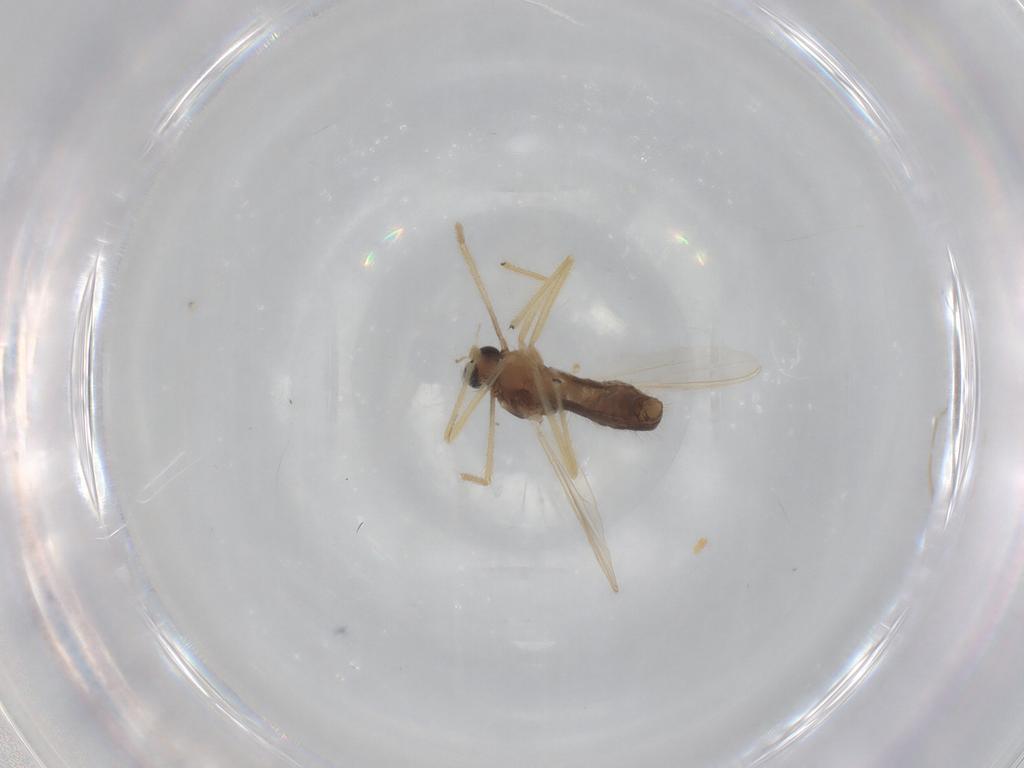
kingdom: Animalia
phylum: Arthropoda
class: Insecta
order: Diptera
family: Chironomidae
